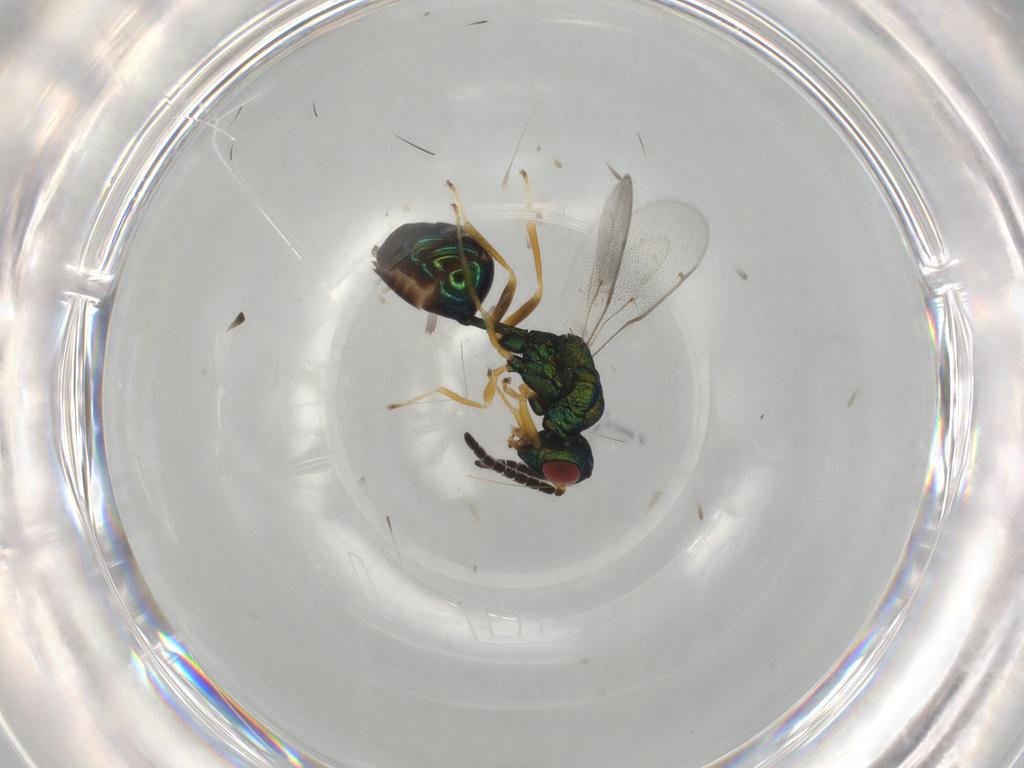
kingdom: Animalia
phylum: Arthropoda
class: Insecta
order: Hymenoptera
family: Eucharitidae
